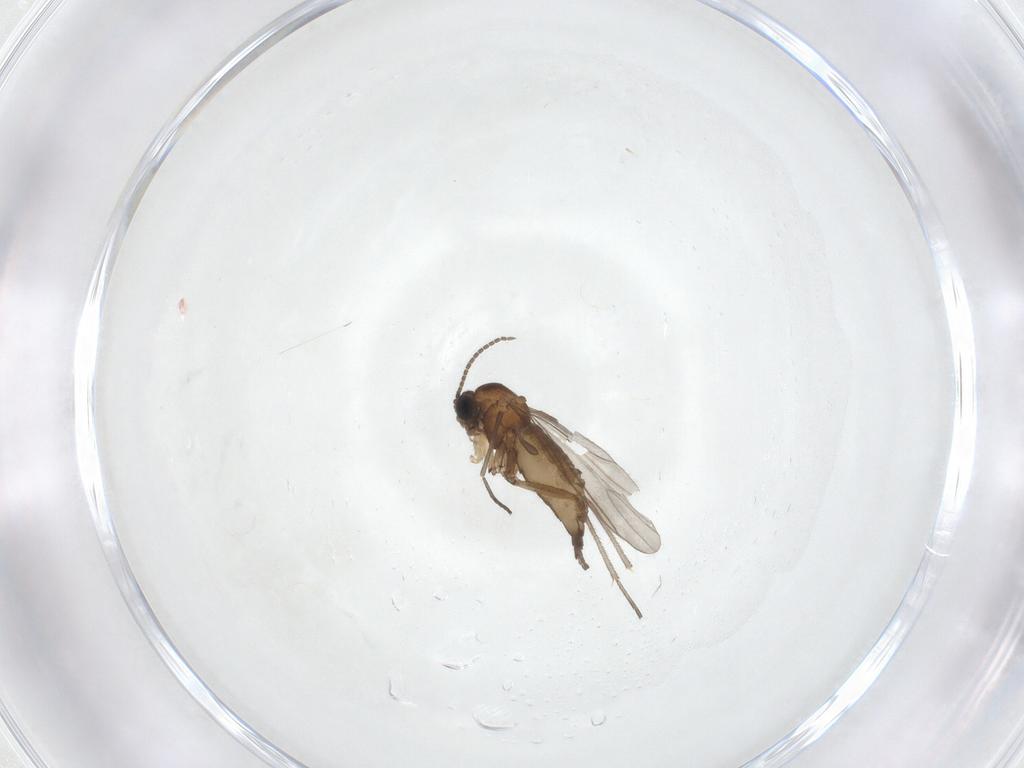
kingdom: Animalia
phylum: Arthropoda
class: Insecta
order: Diptera
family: Sciaridae
